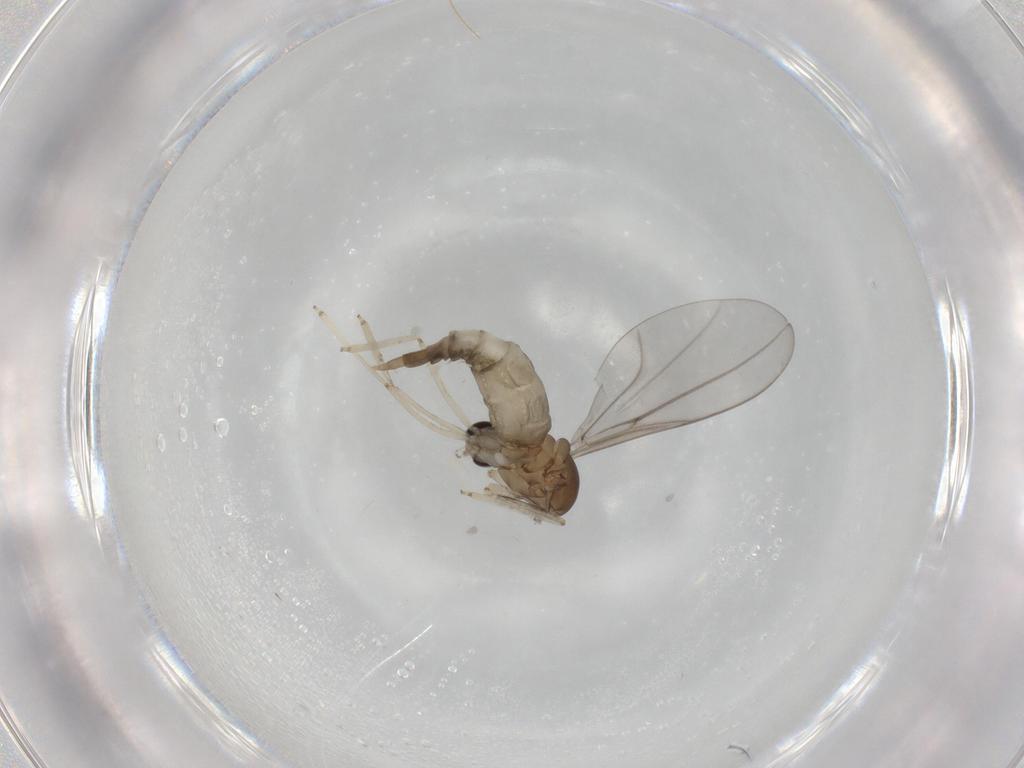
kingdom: Animalia
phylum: Arthropoda
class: Insecta
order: Diptera
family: Cecidomyiidae
